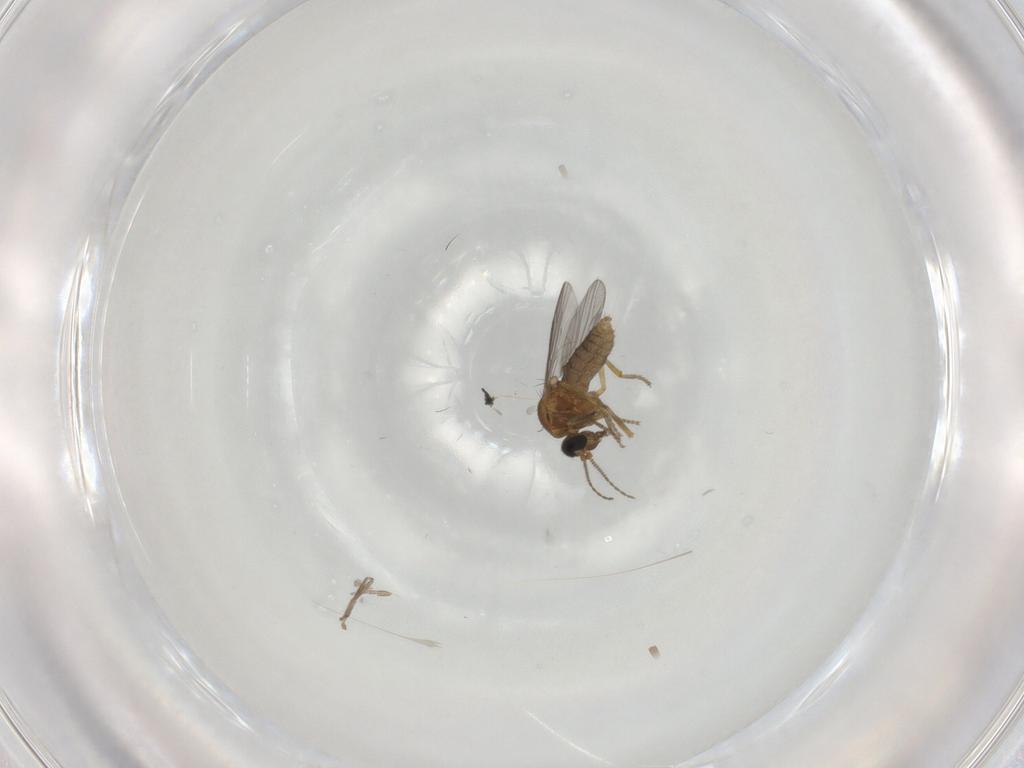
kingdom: Animalia
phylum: Arthropoda
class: Insecta
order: Diptera
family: Ceratopogonidae
